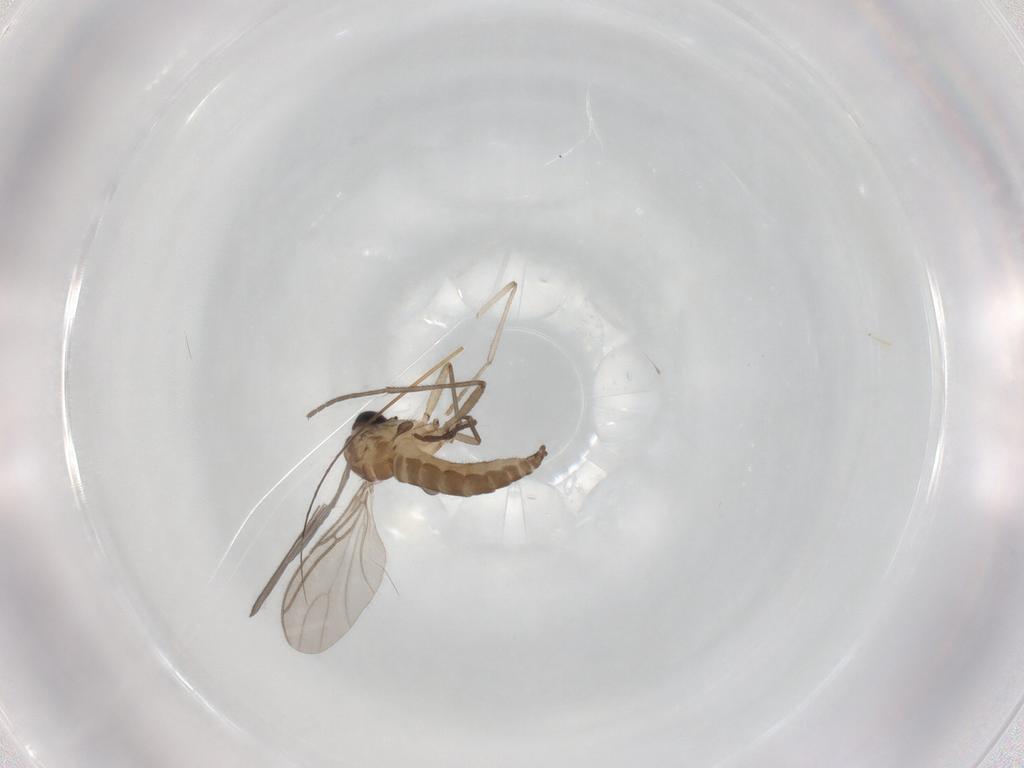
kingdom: Animalia
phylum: Arthropoda
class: Insecta
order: Diptera
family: Sciaridae
